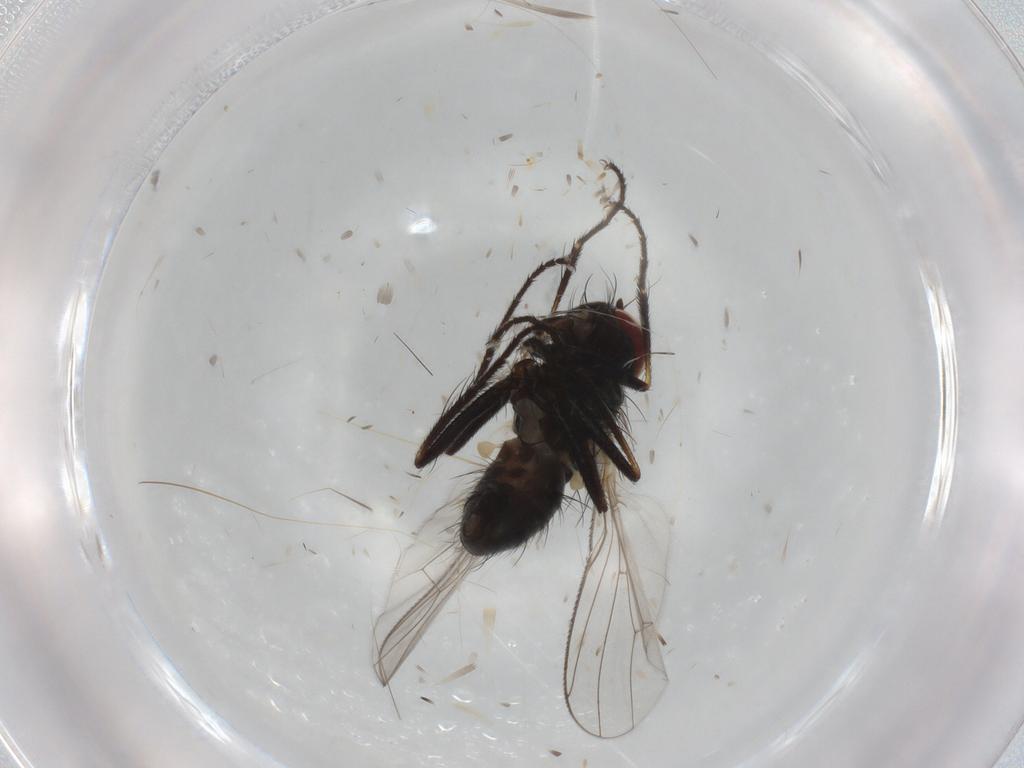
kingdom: Animalia
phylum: Arthropoda
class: Insecta
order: Diptera
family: Muscidae
